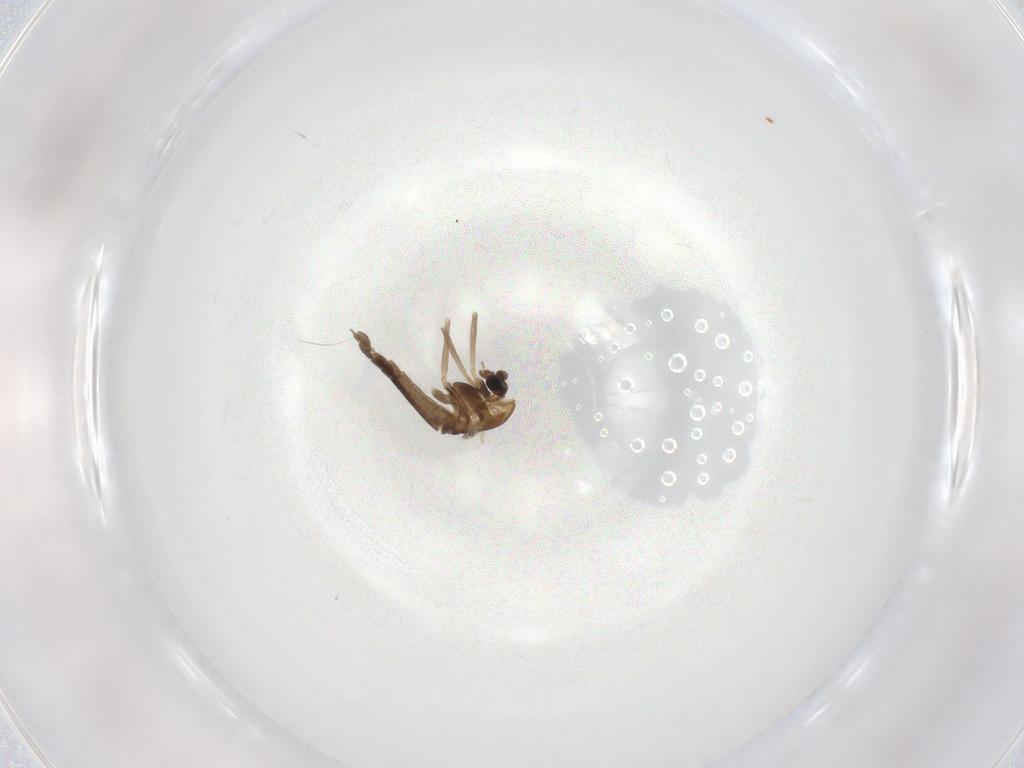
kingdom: Animalia
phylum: Arthropoda
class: Insecta
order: Diptera
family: Chironomidae
